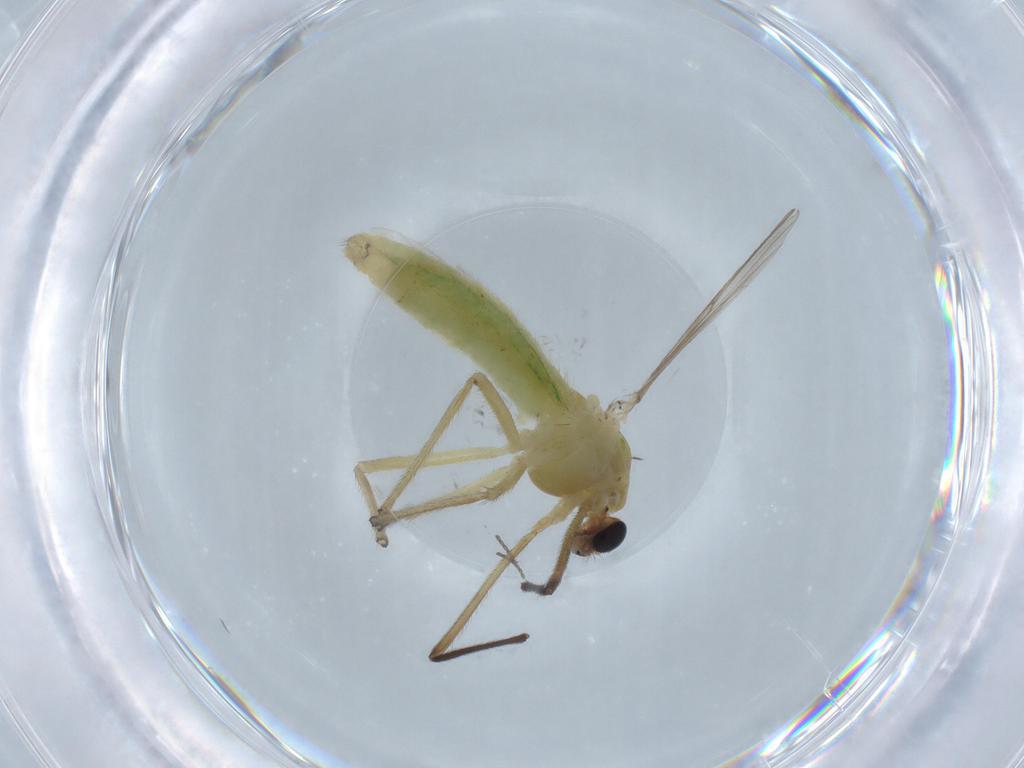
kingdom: Animalia
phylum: Arthropoda
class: Insecta
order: Diptera
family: Chironomidae
